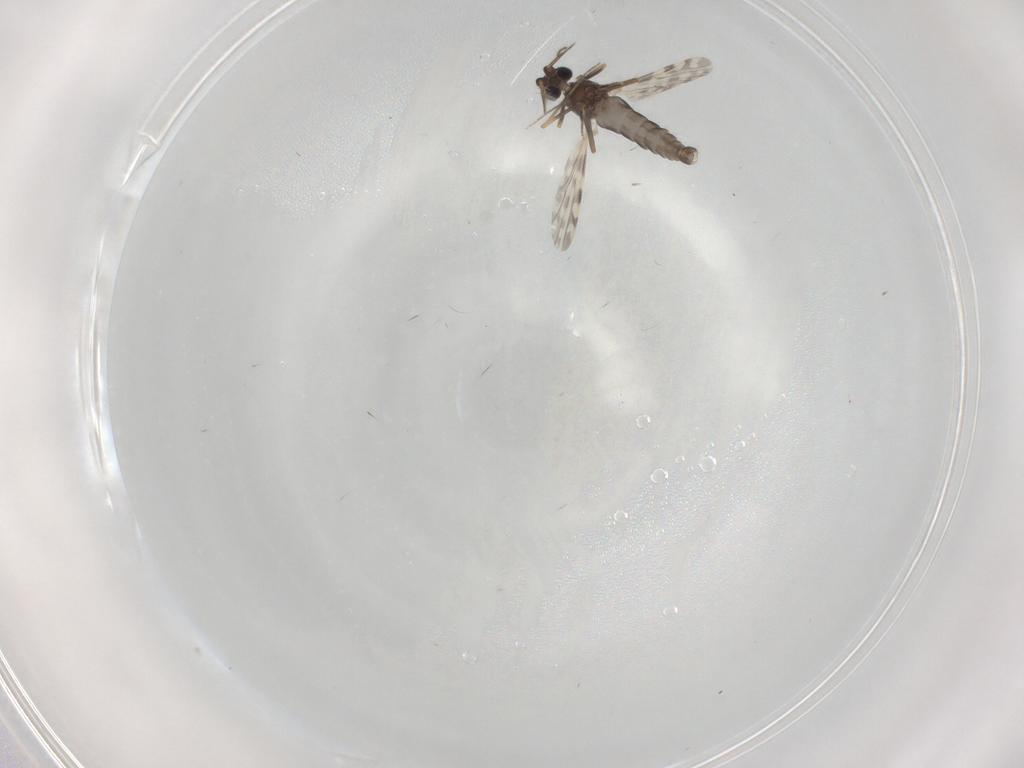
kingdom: Animalia
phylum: Arthropoda
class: Insecta
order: Diptera
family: Ceratopogonidae
